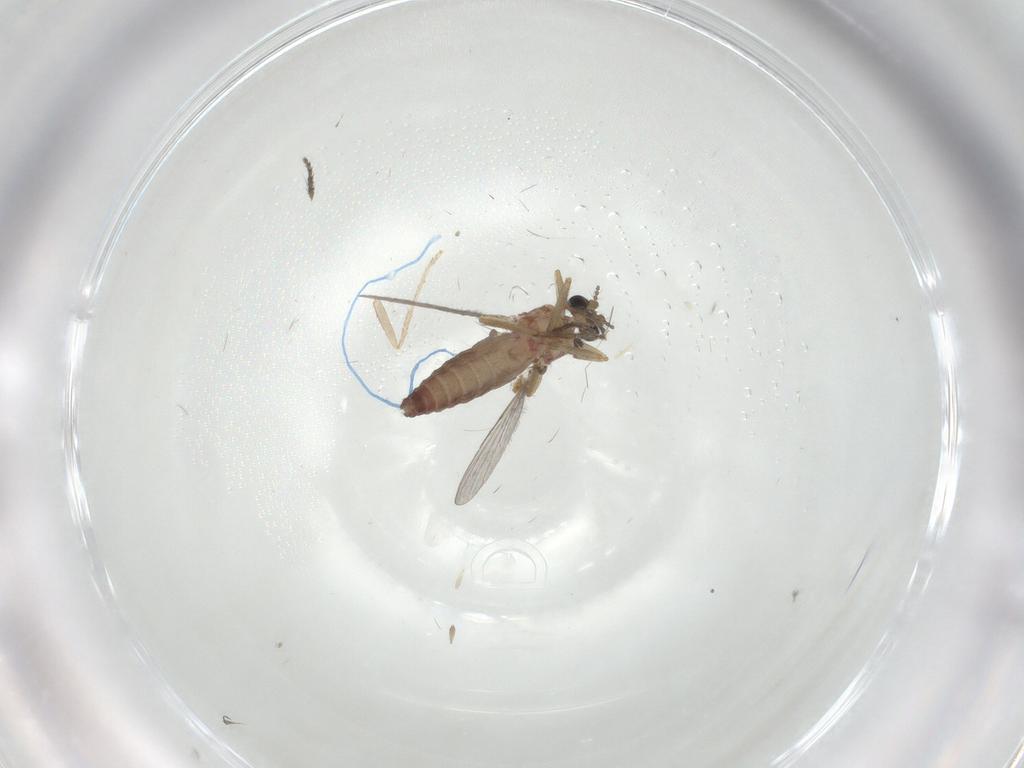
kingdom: Animalia
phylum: Arthropoda
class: Insecta
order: Diptera
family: Ceratopogonidae
